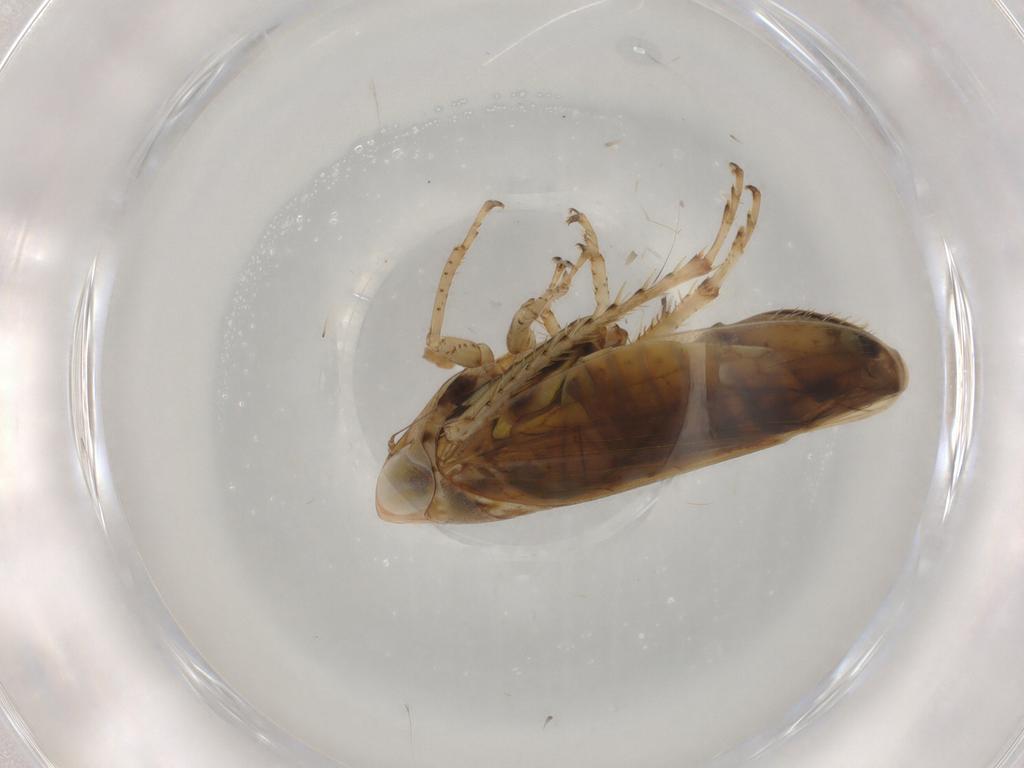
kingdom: Animalia
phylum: Arthropoda
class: Insecta
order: Hemiptera
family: Cicadellidae
